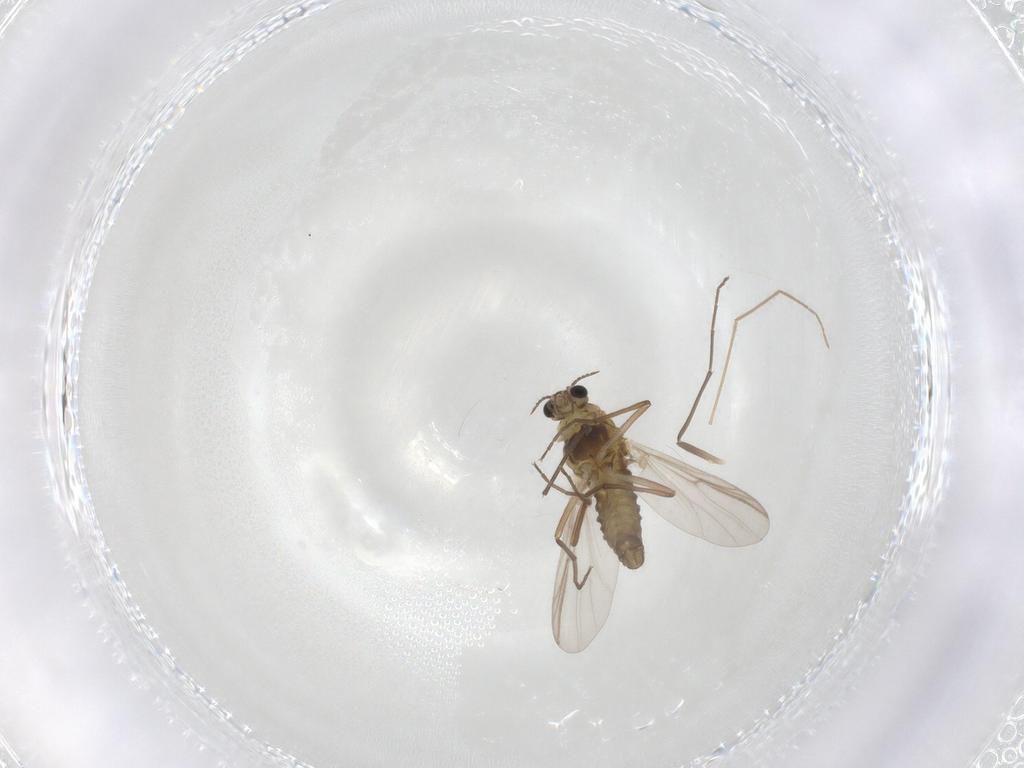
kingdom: Animalia
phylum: Arthropoda
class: Insecta
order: Diptera
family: Chironomidae
